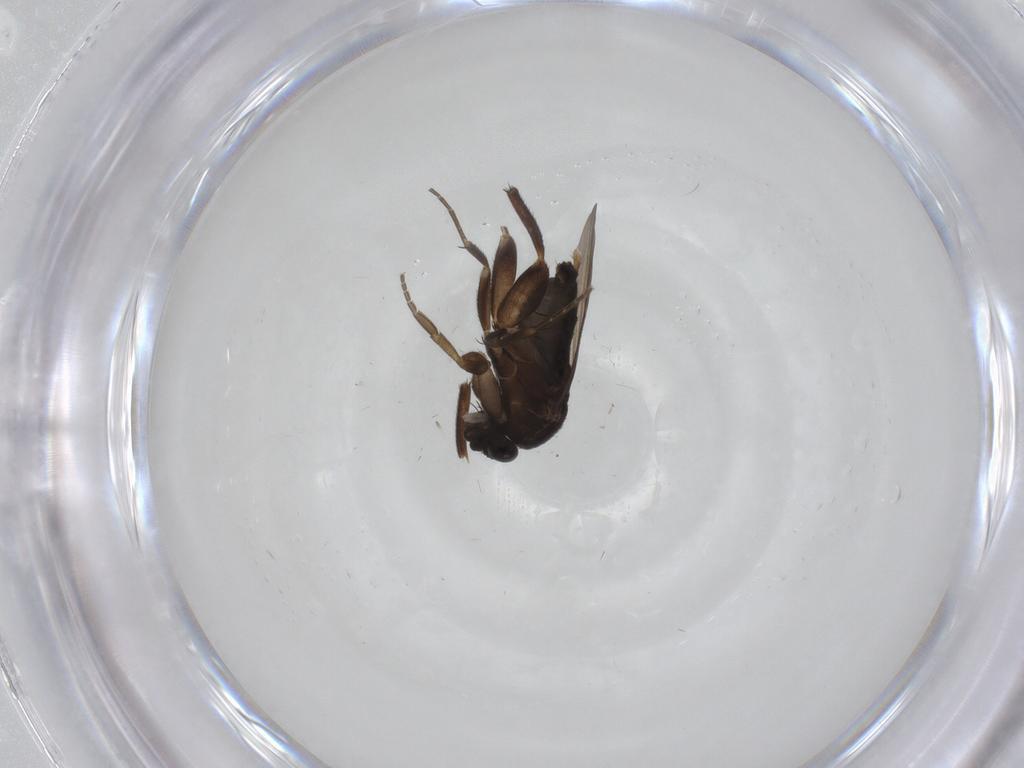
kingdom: Animalia
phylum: Arthropoda
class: Insecta
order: Diptera
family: Phoridae
